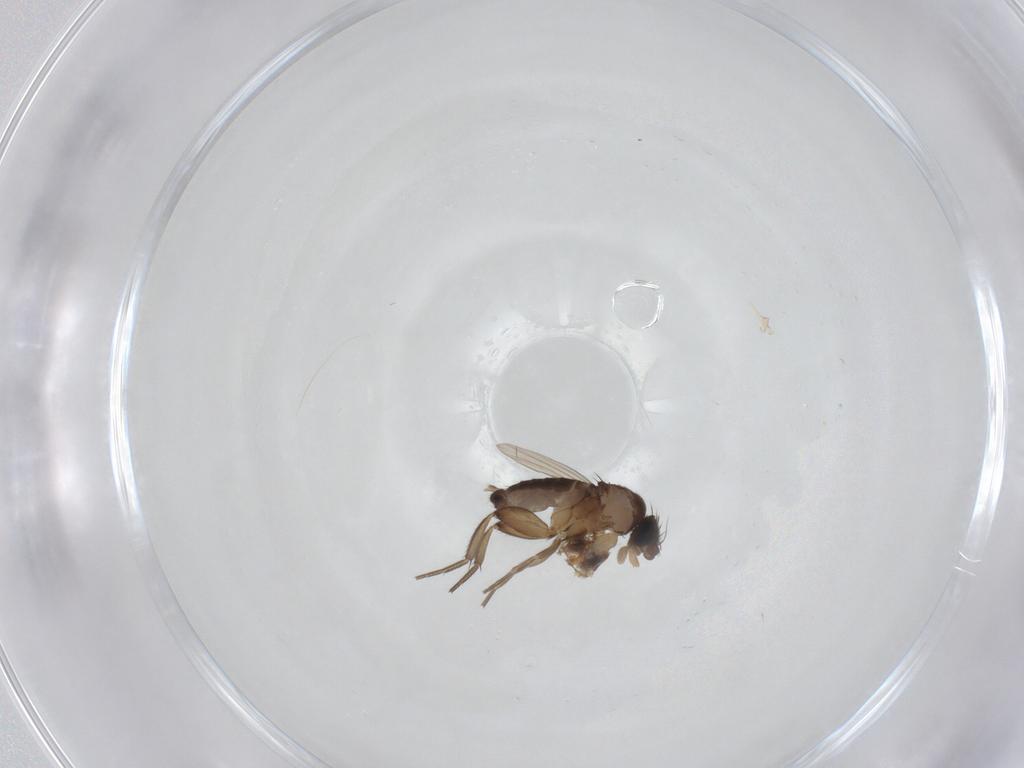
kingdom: Animalia
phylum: Arthropoda
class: Insecta
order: Diptera
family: Phoridae
